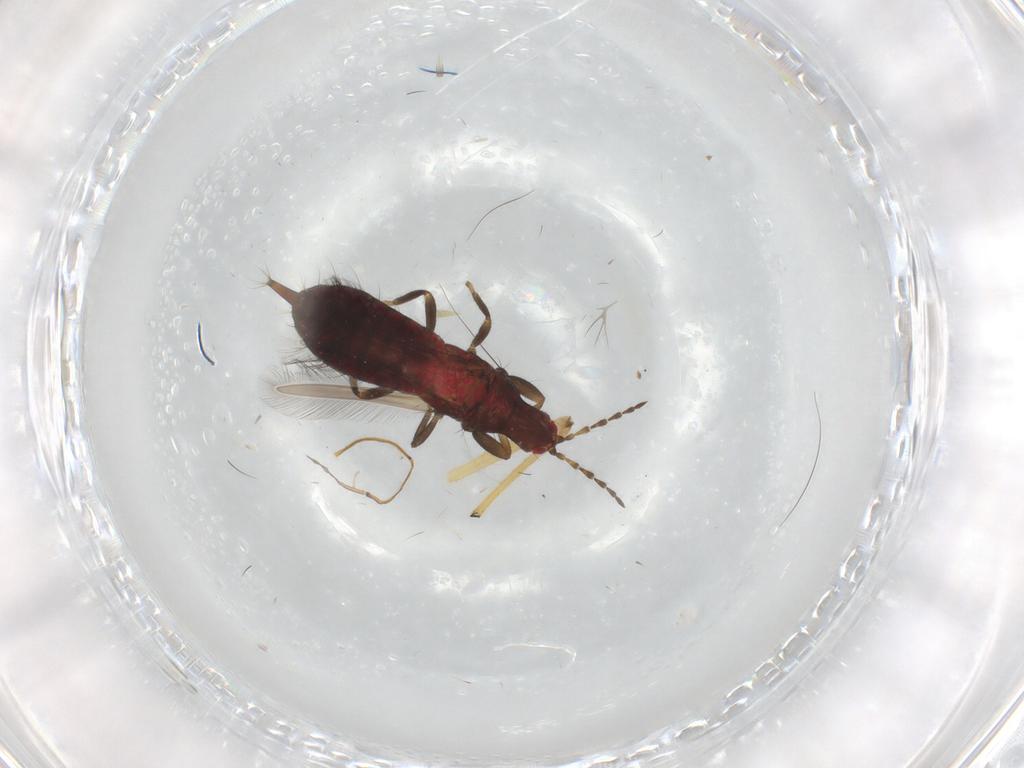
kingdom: Animalia
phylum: Arthropoda
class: Insecta
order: Thysanoptera
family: Phlaeothripidae
